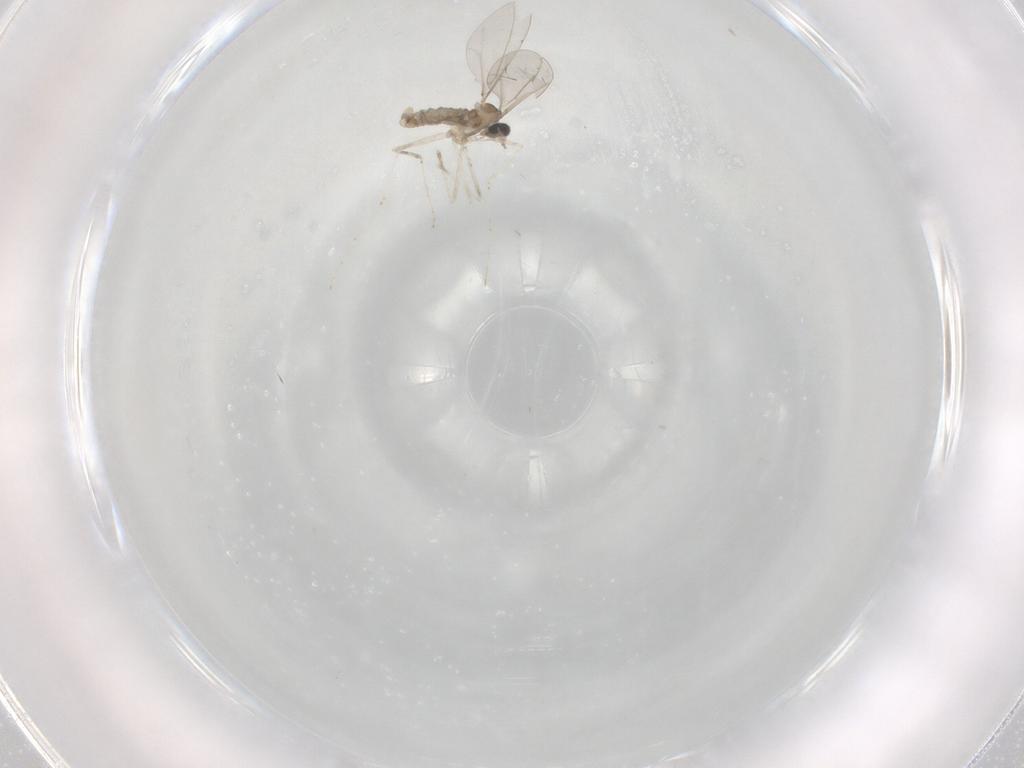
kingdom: Animalia
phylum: Arthropoda
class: Insecta
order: Diptera
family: Cecidomyiidae
